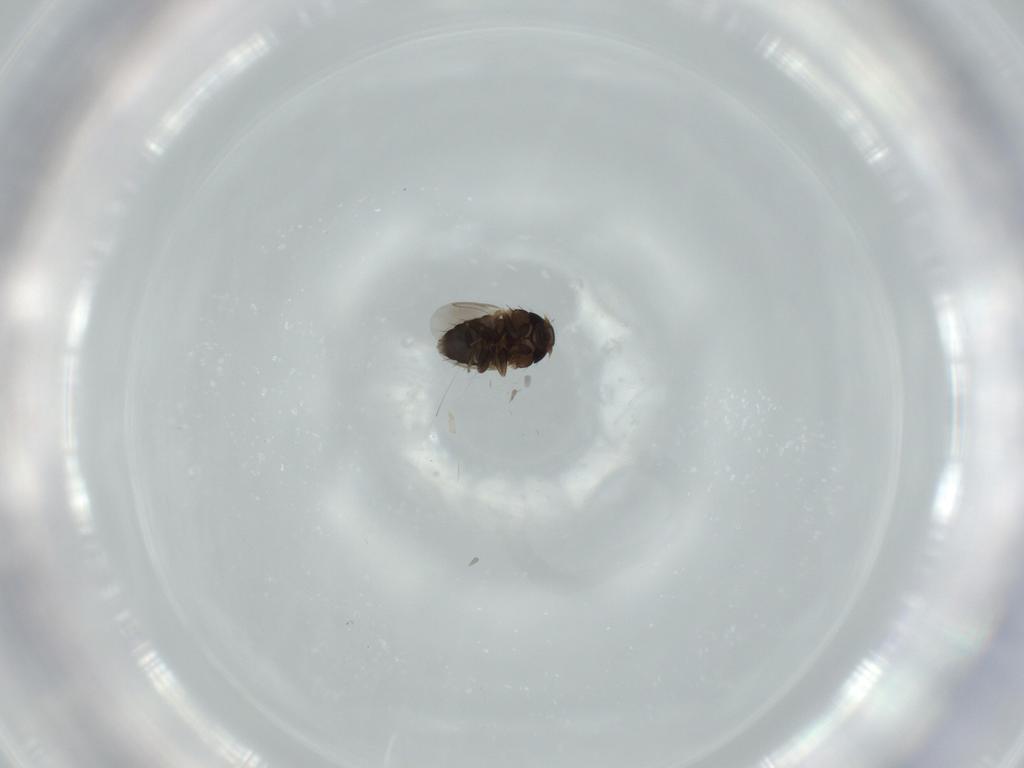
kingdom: Animalia
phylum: Arthropoda
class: Insecta
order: Diptera
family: Phoridae
